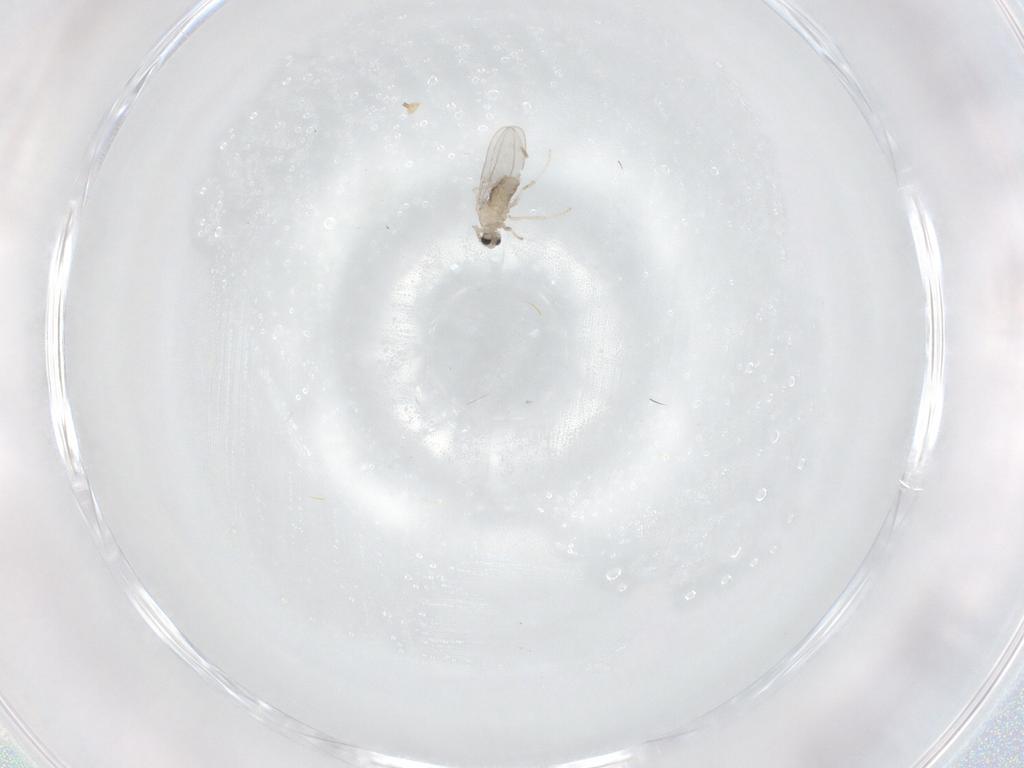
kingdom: Animalia
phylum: Arthropoda
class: Insecta
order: Diptera
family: Cecidomyiidae
